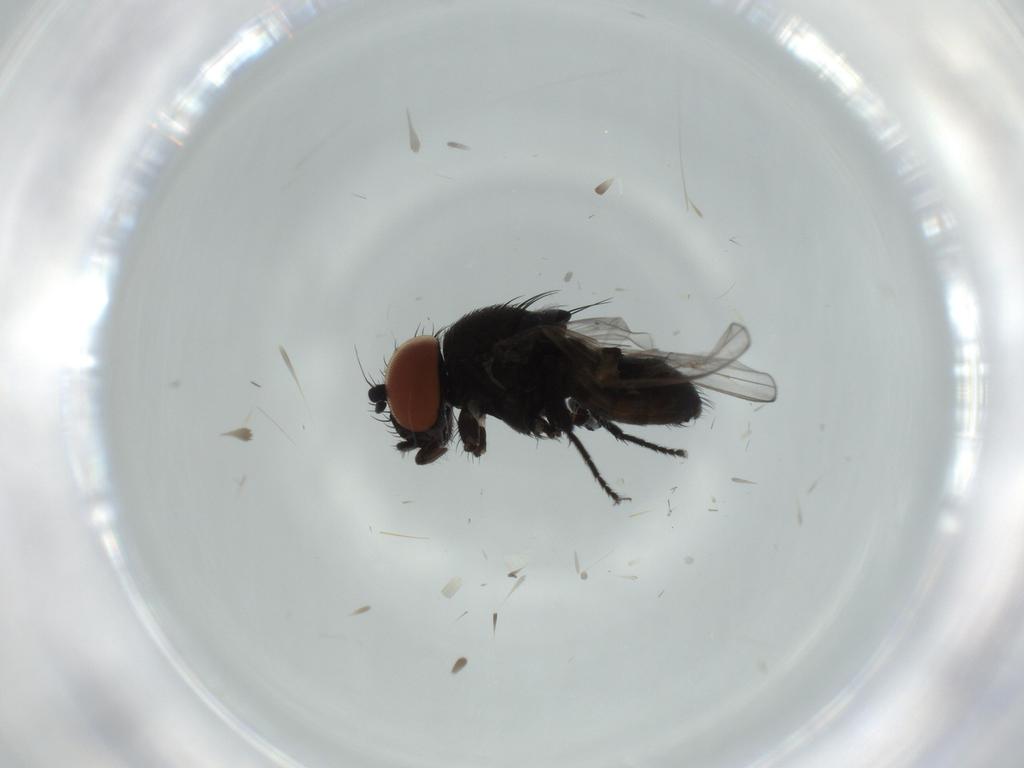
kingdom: Animalia
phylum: Arthropoda
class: Insecta
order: Diptera
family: Milichiidae
